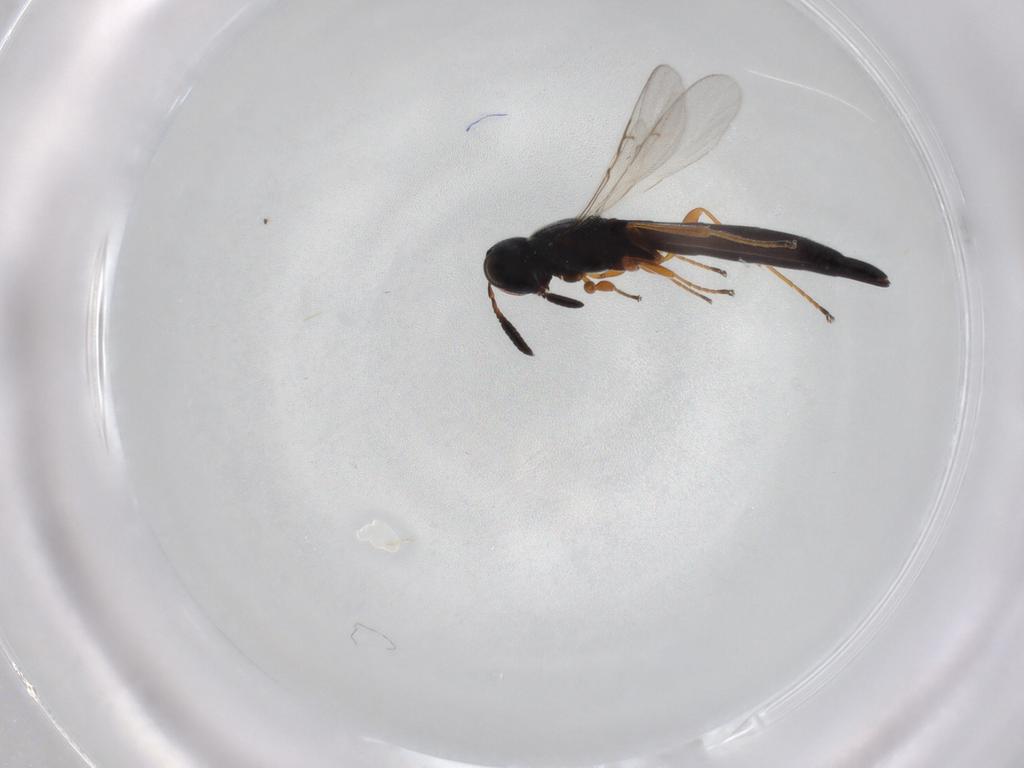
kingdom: Animalia
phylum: Arthropoda
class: Insecta
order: Hymenoptera
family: Scelionidae
